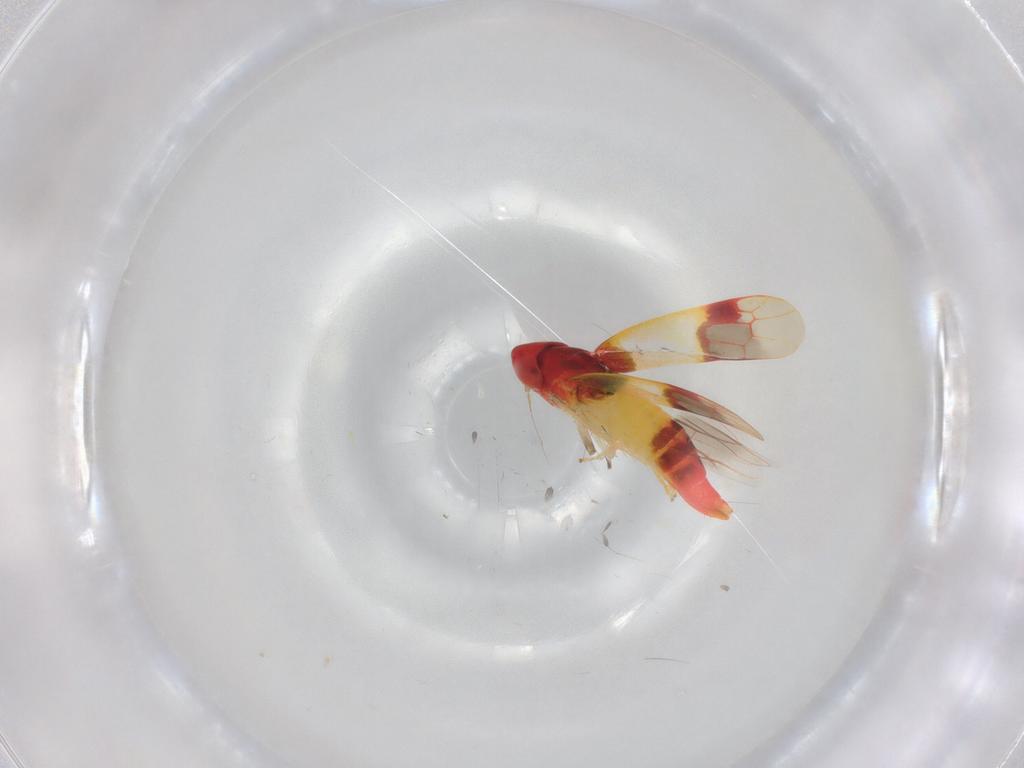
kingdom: Animalia
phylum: Arthropoda
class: Insecta
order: Hemiptera
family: Cicadellidae
